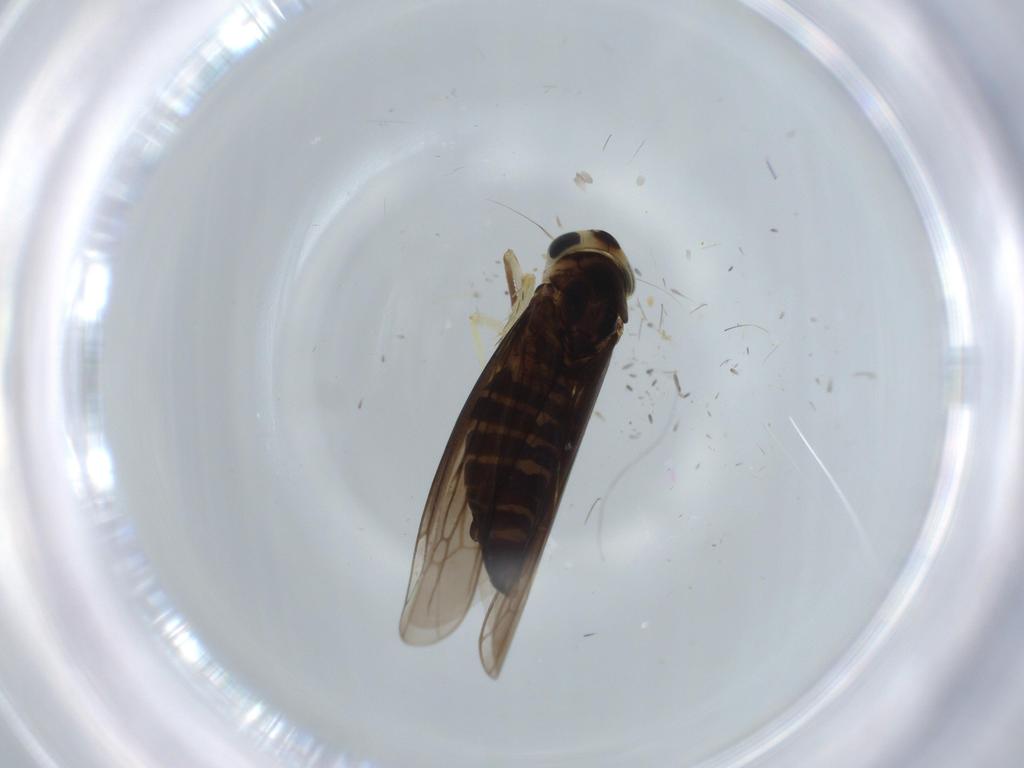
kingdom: Animalia
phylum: Arthropoda
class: Insecta
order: Hemiptera
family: Cicadellidae
